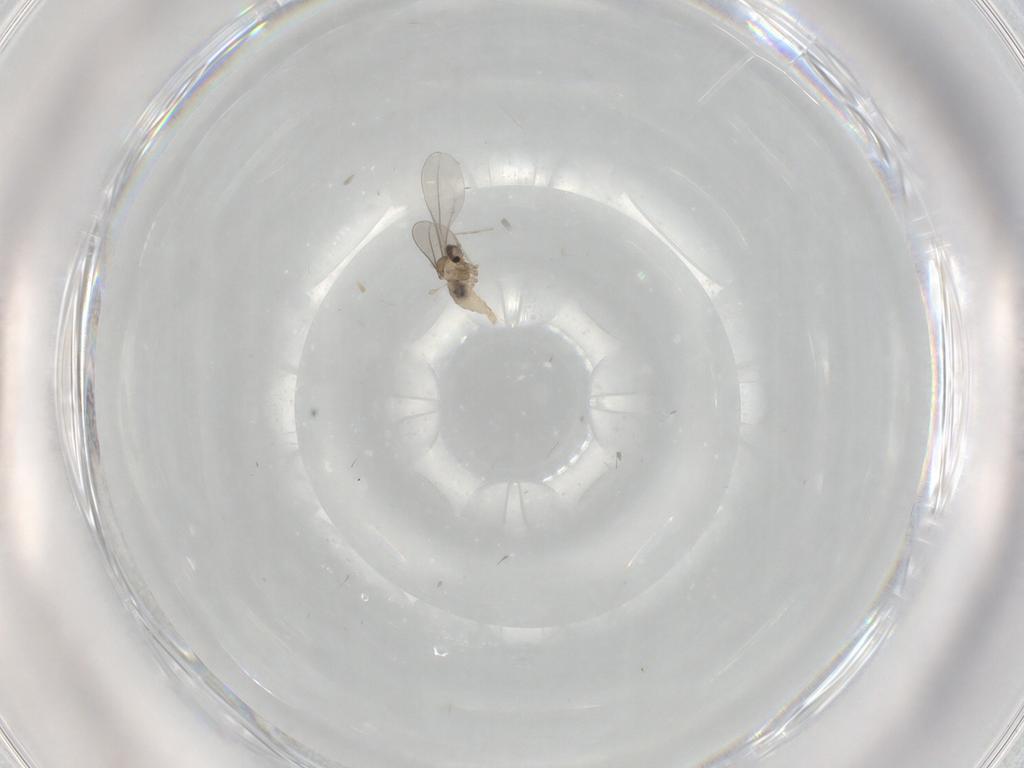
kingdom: Animalia
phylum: Arthropoda
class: Insecta
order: Diptera
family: Cecidomyiidae
